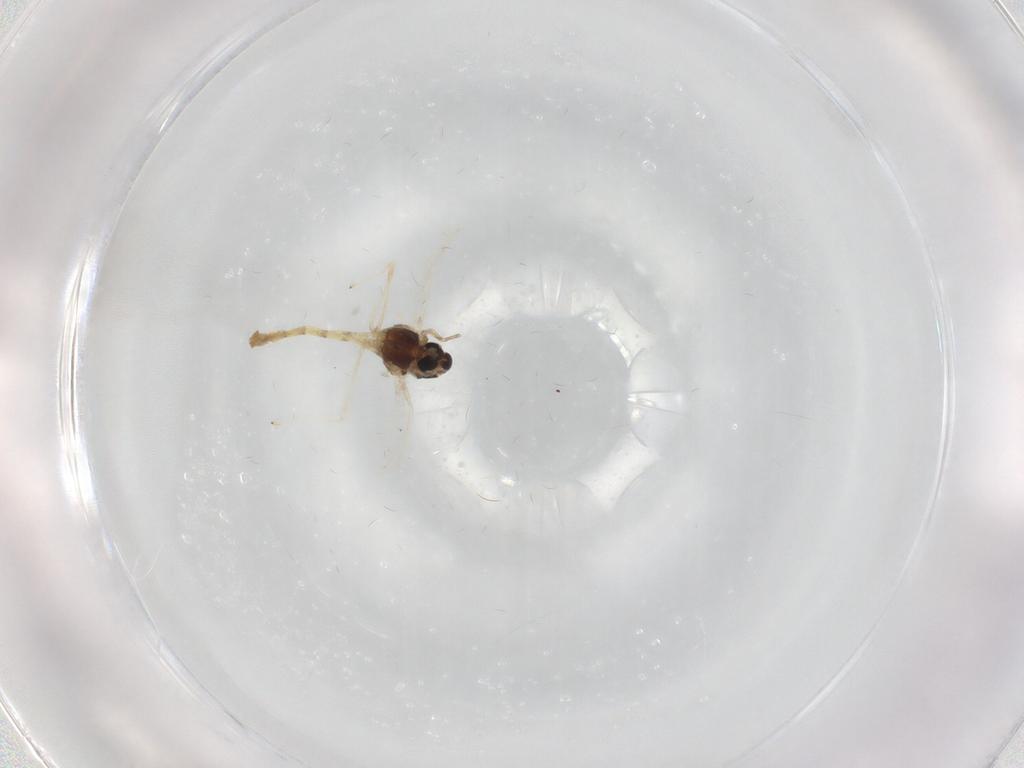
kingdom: Animalia
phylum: Arthropoda
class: Insecta
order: Diptera
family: Chironomidae
